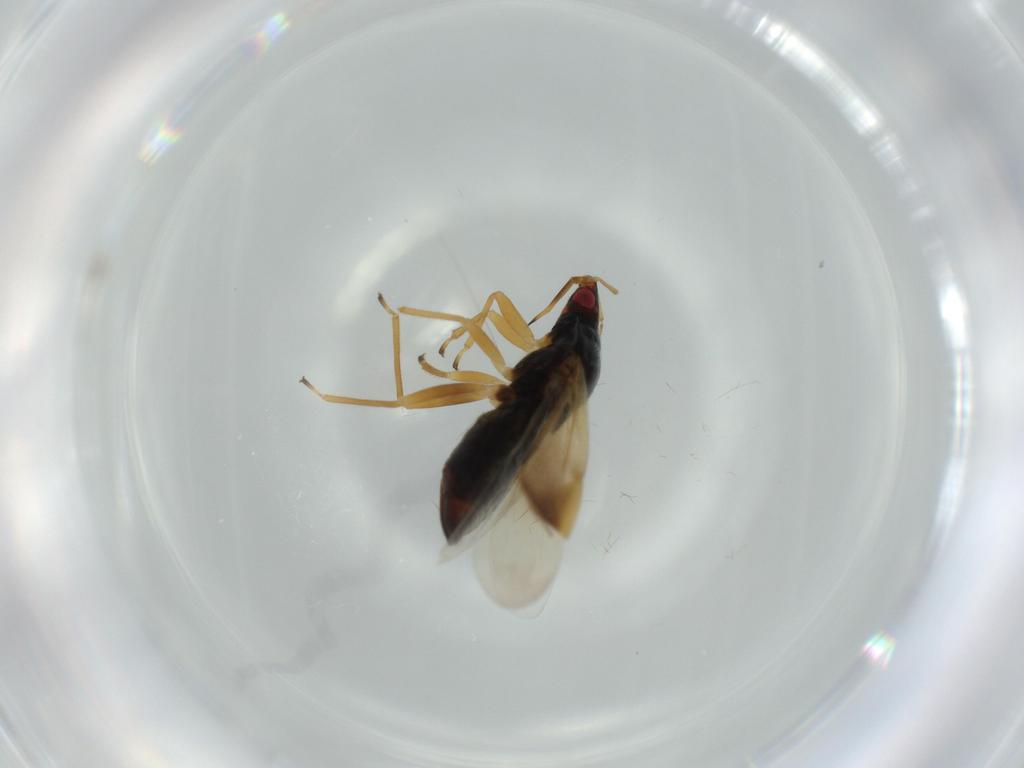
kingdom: Animalia
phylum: Arthropoda
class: Insecta
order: Hemiptera
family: Anthocoridae
